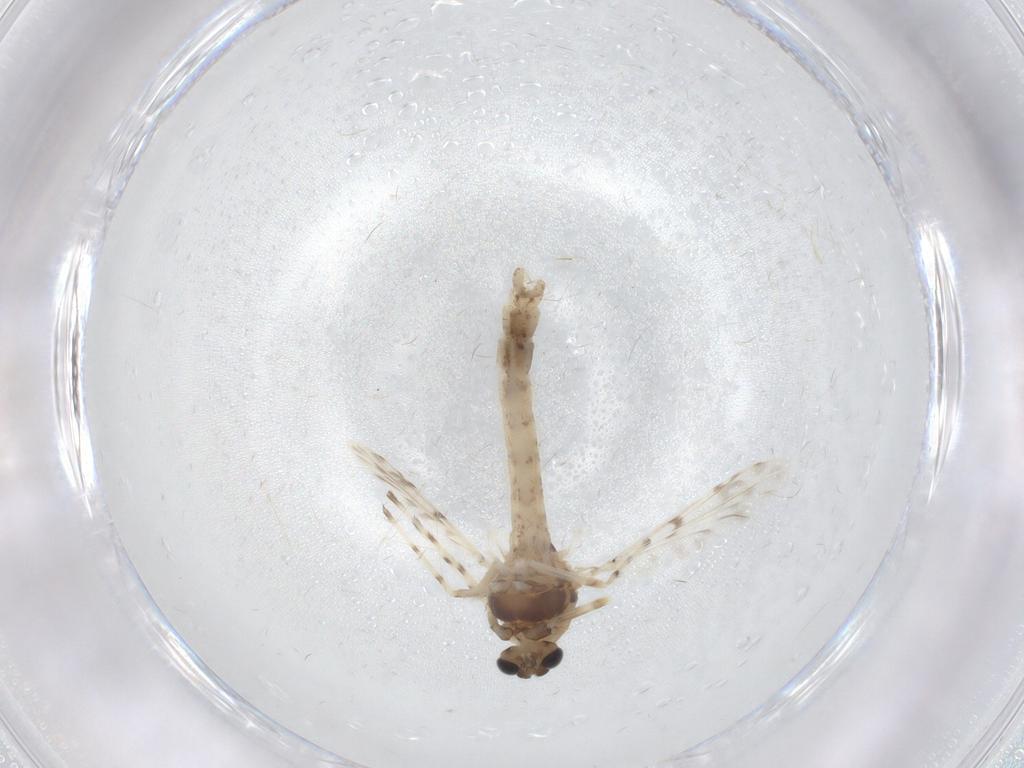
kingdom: Animalia
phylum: Arthropoda
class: Insecta
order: Diptera
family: Chironomidae
